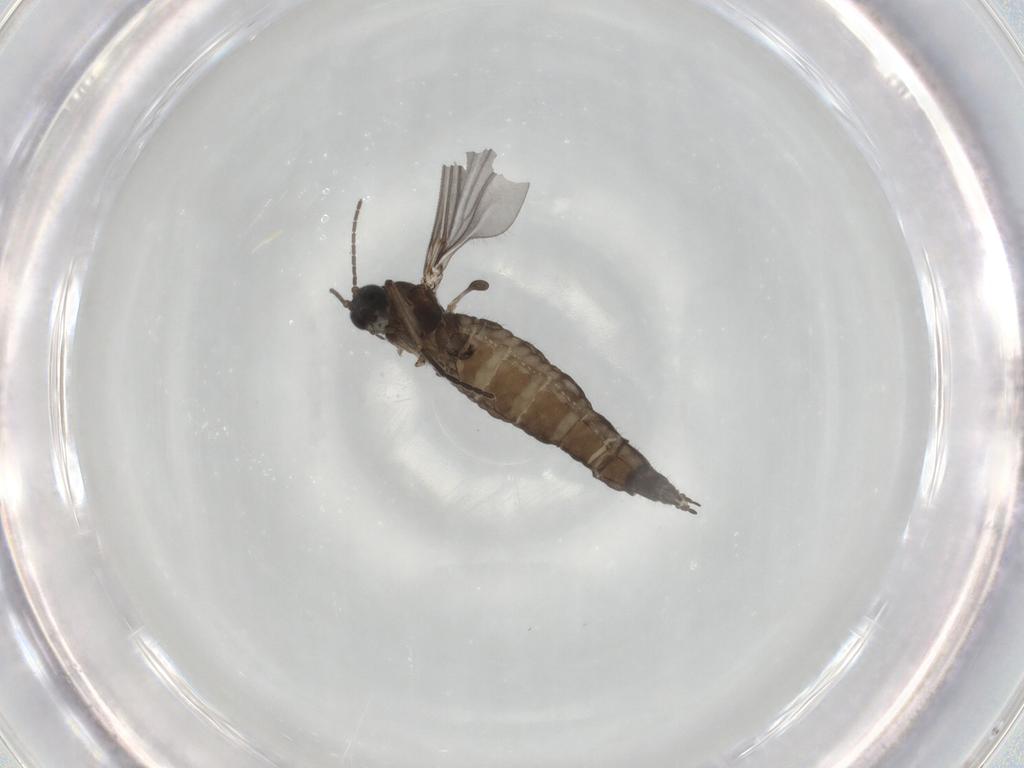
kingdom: Animalia
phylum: Arthropoda
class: Insecta
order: Diptera
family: Sciaridae
